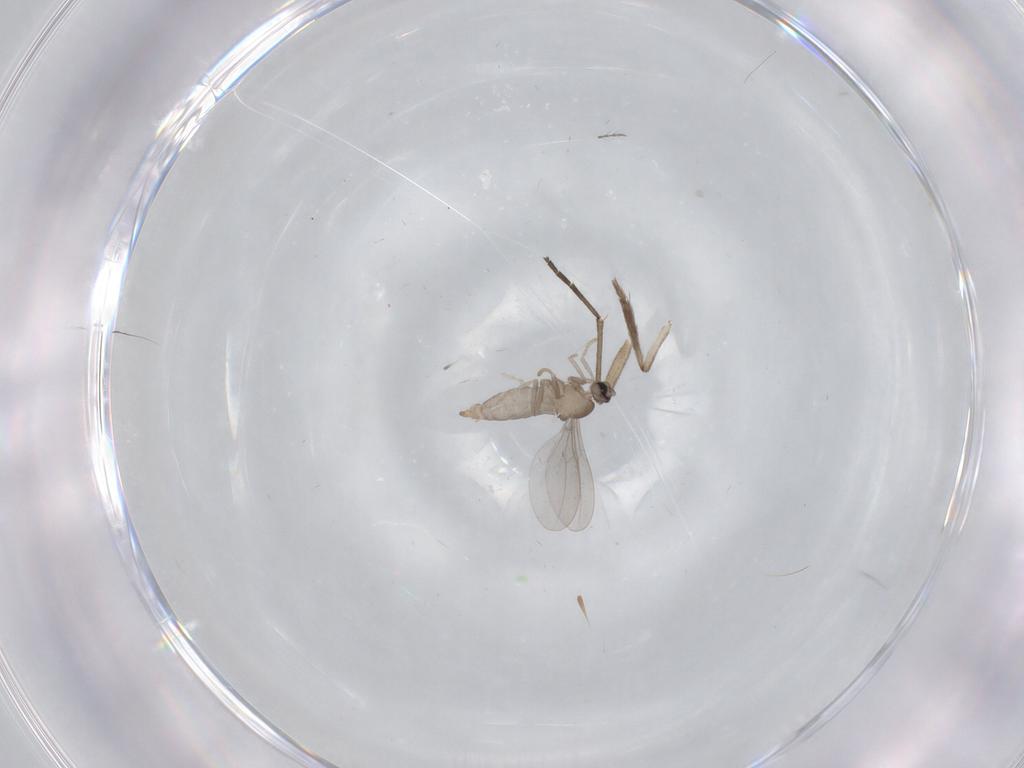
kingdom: Animalia
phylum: Arthropoda
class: Insecta
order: Diptera
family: Cecidomyiidae
